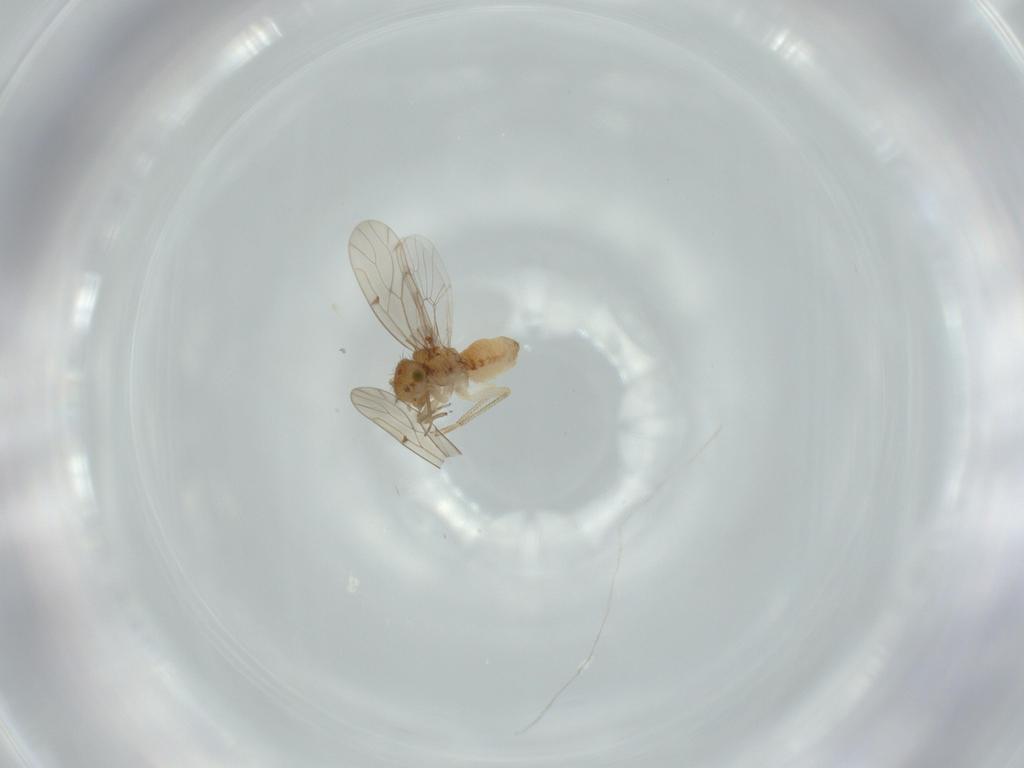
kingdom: Animalia
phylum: Arthropoda
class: Insecta
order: Psocodea
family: Ectopsocidae
